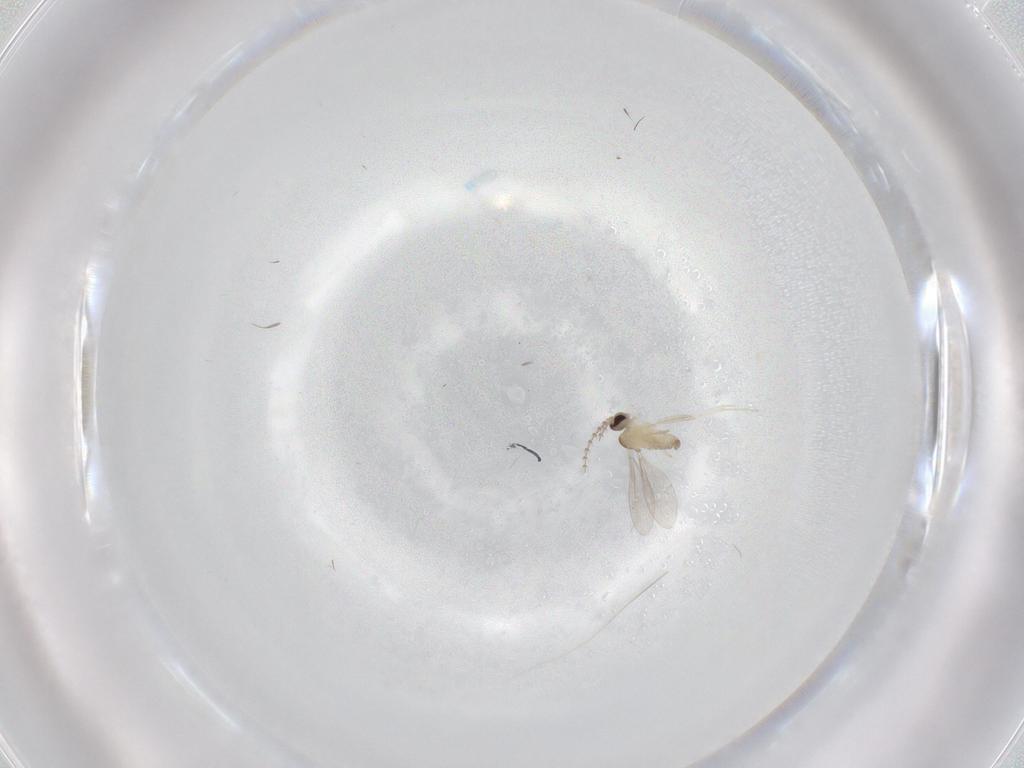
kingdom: Animalia
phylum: Arthropoda
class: Insecta
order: Diptera
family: Cecidomyiidae
